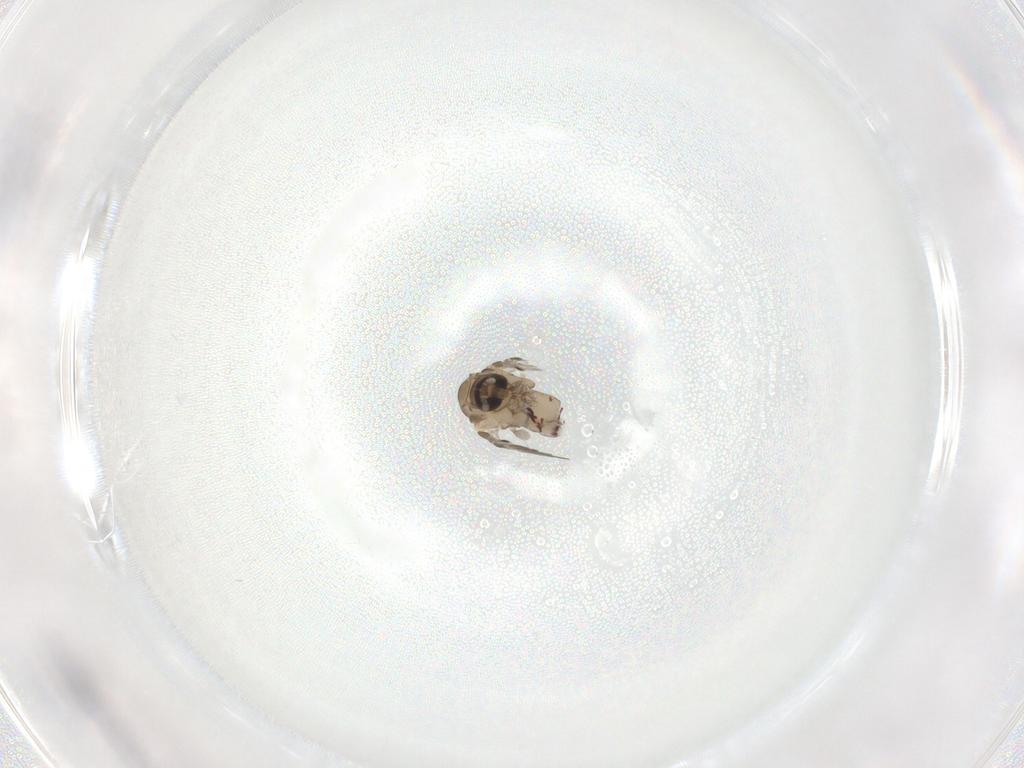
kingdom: Animalia
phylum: Arthropoda
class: Insecta
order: Diptera
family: Psychodidae
